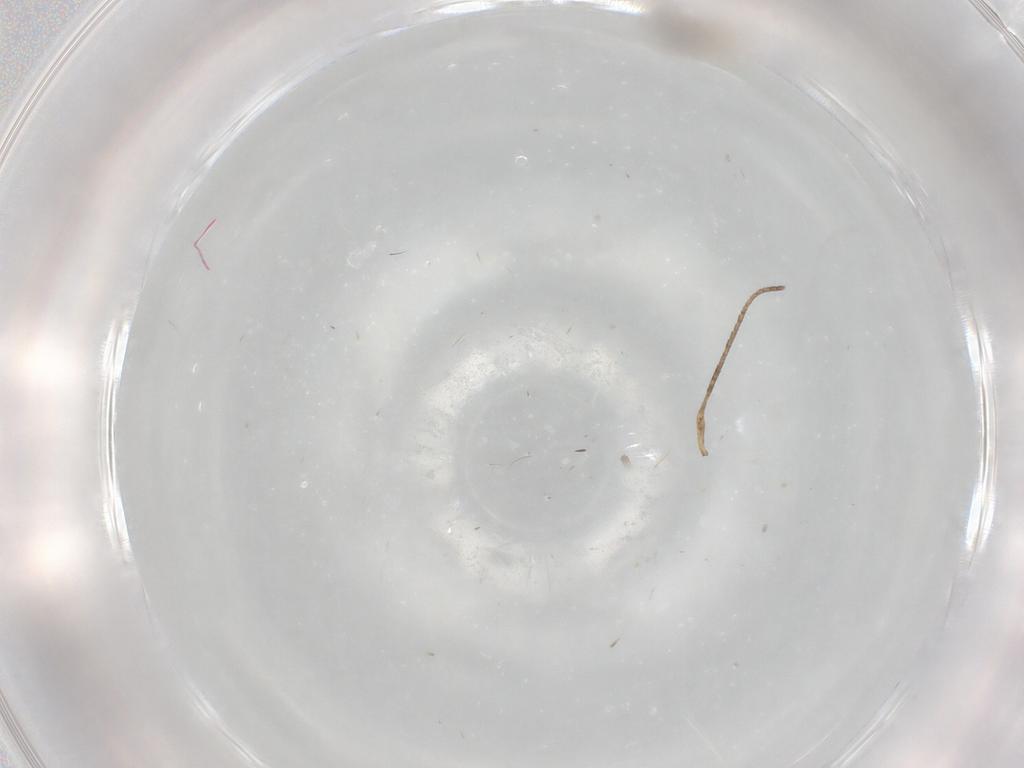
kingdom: Animalia
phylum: Arthropoda
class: Insecta
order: Diptera
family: Cecidomyiidae
